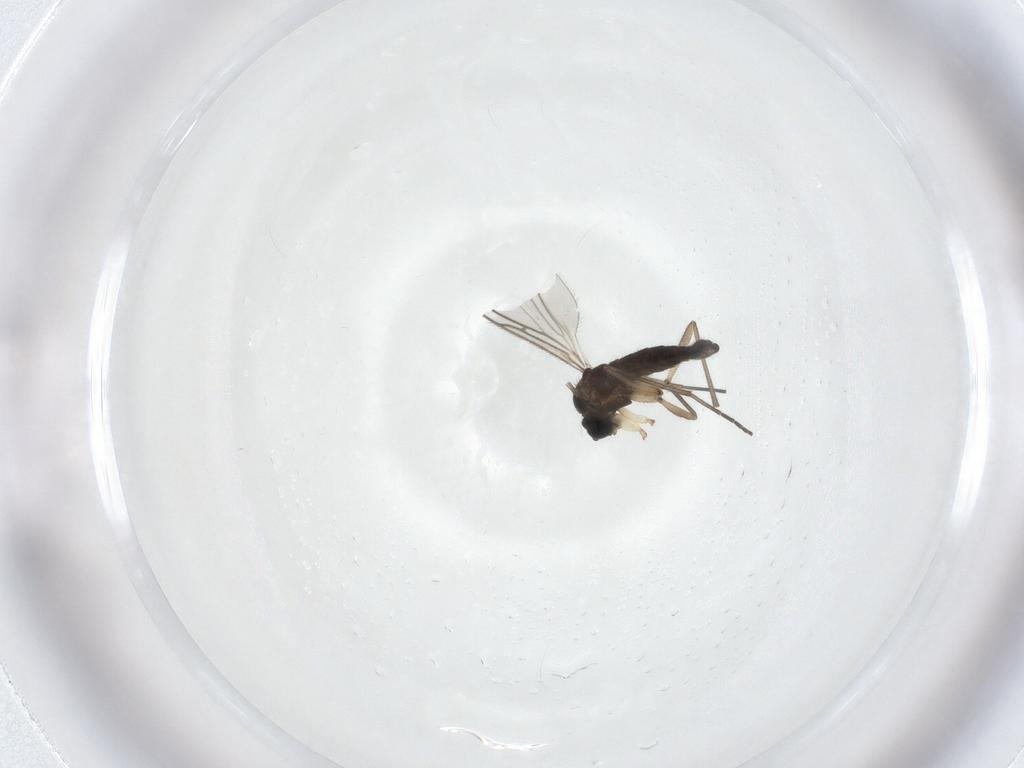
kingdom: Animalia
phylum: Arthropoda
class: Insecta
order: Diptera
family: Sciaridae
